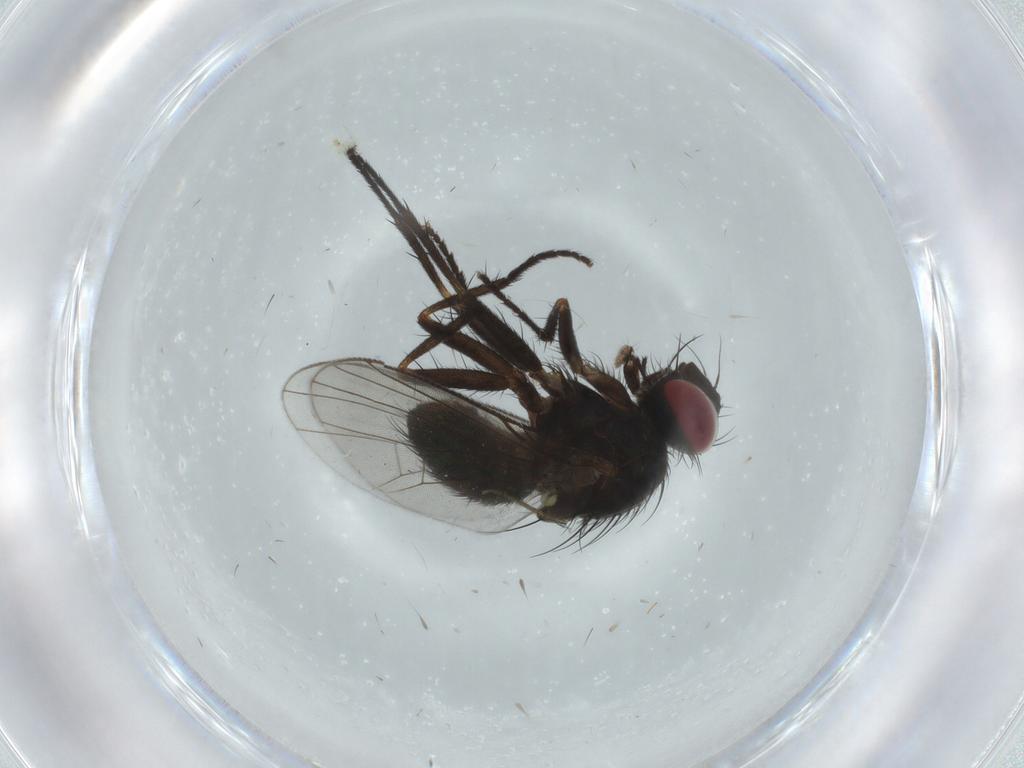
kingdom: Animalia
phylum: Arthropoda
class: Insecta
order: Diptera
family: Muscidae
